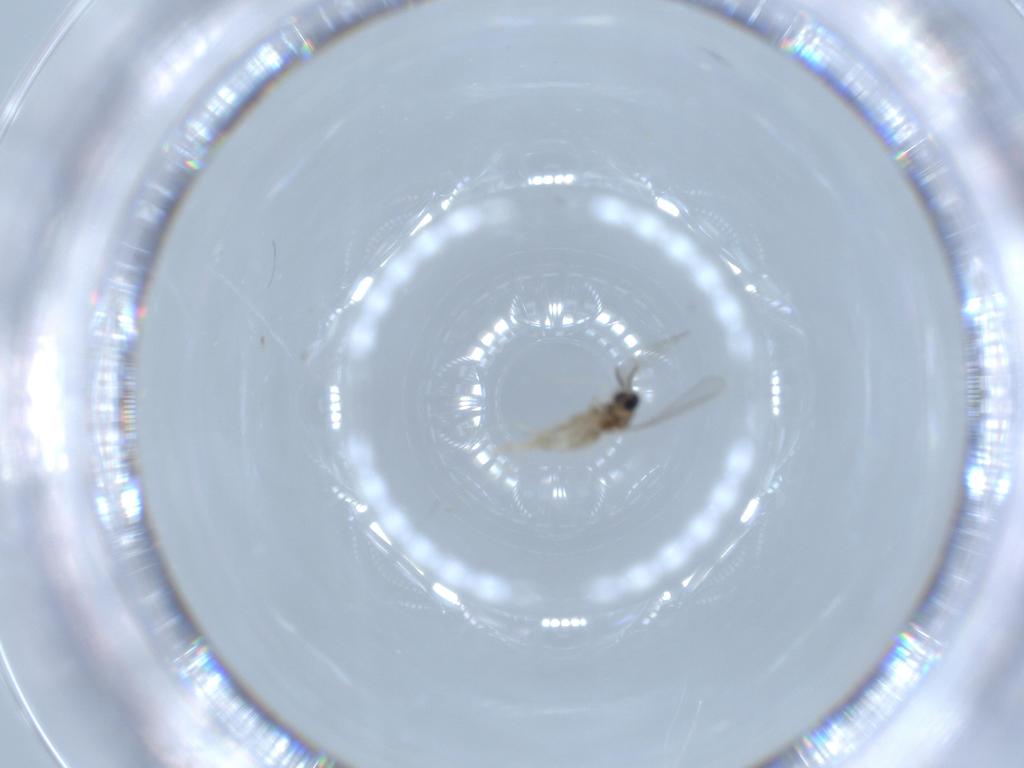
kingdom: Animalia
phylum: Arthropoda
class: Insecta
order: Diptera
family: Cecidomyiidae
